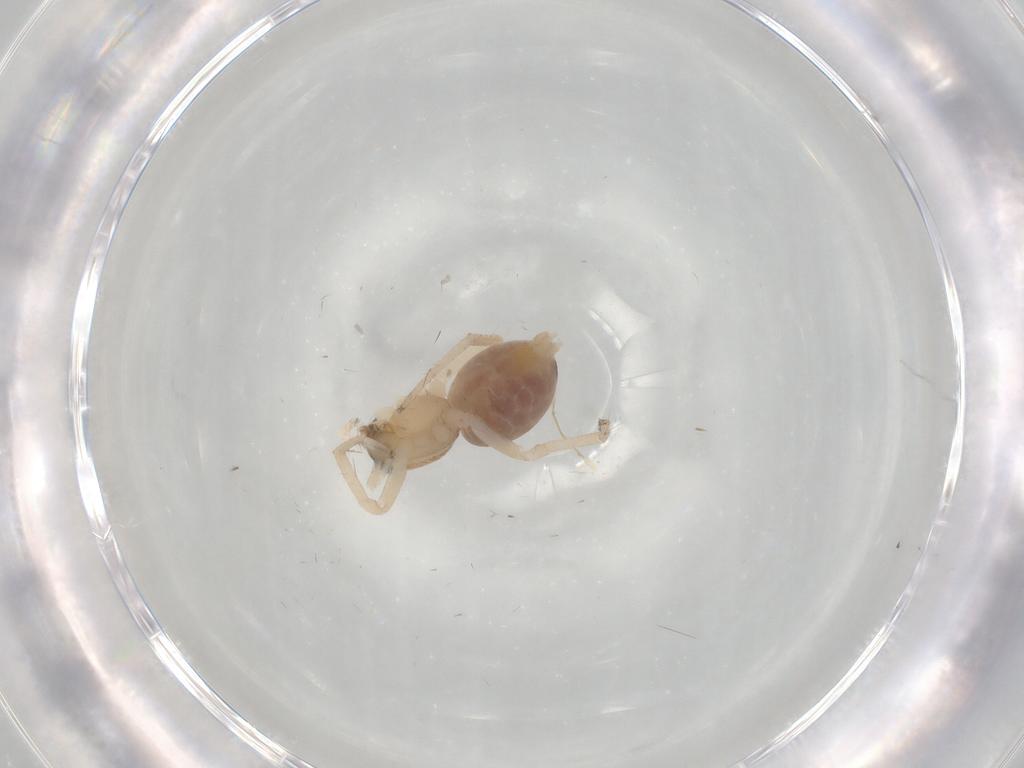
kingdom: Animalia
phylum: Arthropoda
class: Arachnida
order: Araneae
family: Anyphaenidae
